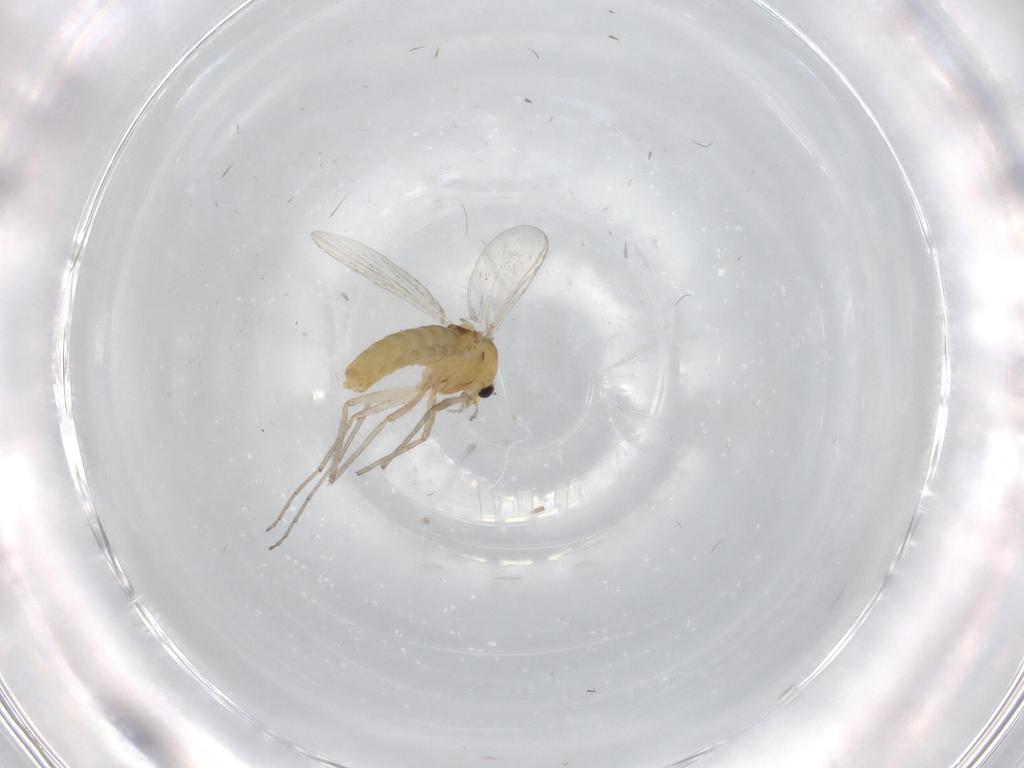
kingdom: Animalia
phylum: Arthropoda
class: Insecta
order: Diptera
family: Chironomidae
